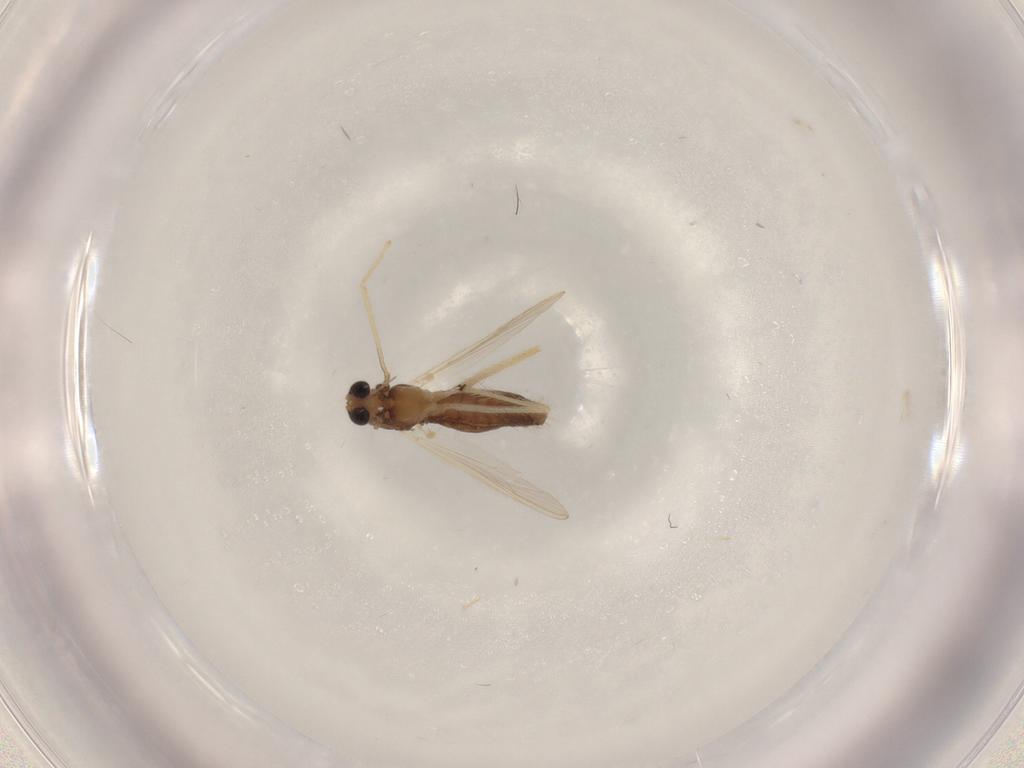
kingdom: Animalia
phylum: Arthropoda
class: Insecta
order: Diptera
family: Chironomidae
